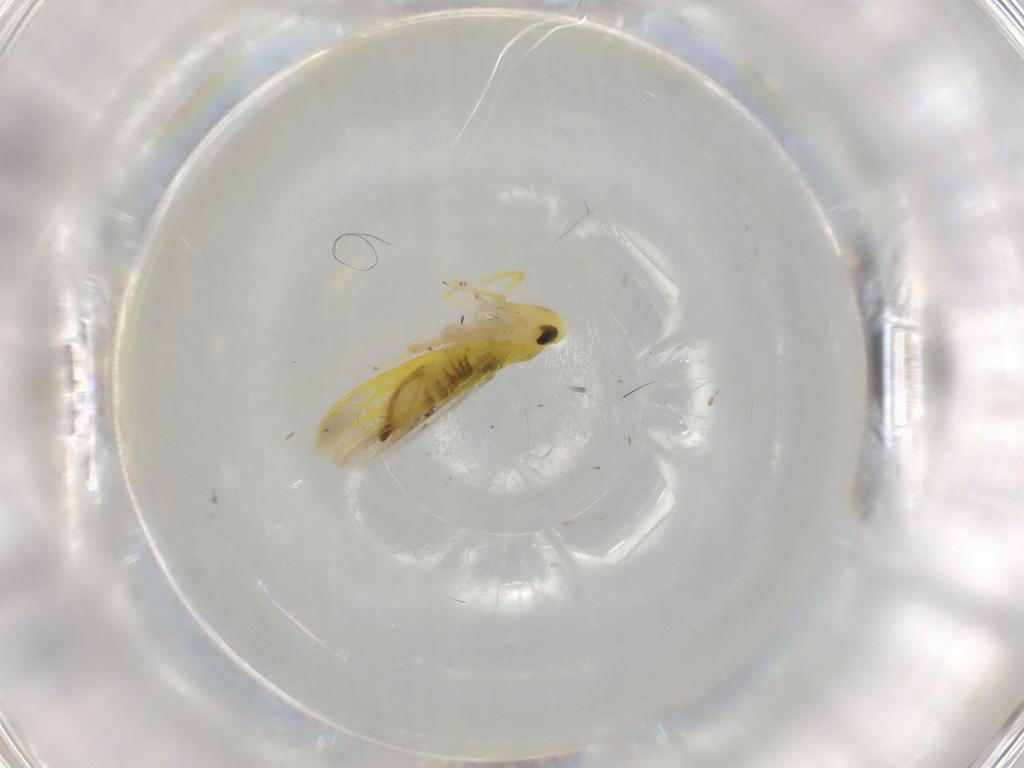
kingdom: Animalia
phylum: Arthropoda
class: Insecta
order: Hemiptera
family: Cicadellidae
